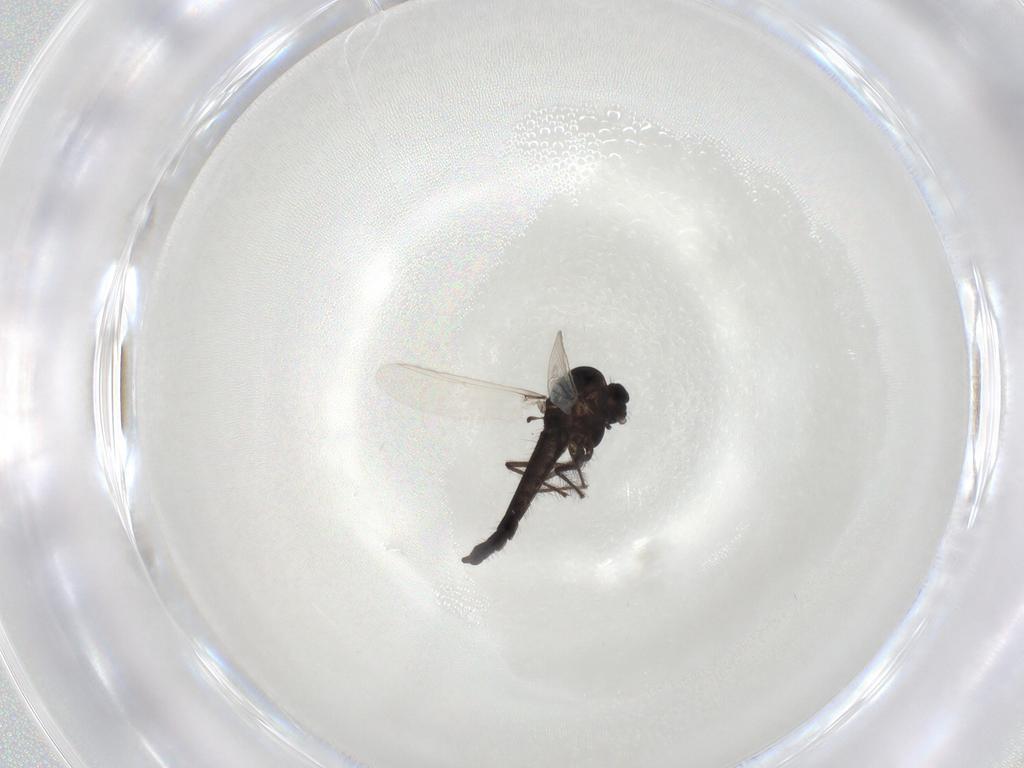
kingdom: Animalia
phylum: Arthropoda
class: Insecta
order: Diptera
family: Chironomidae
